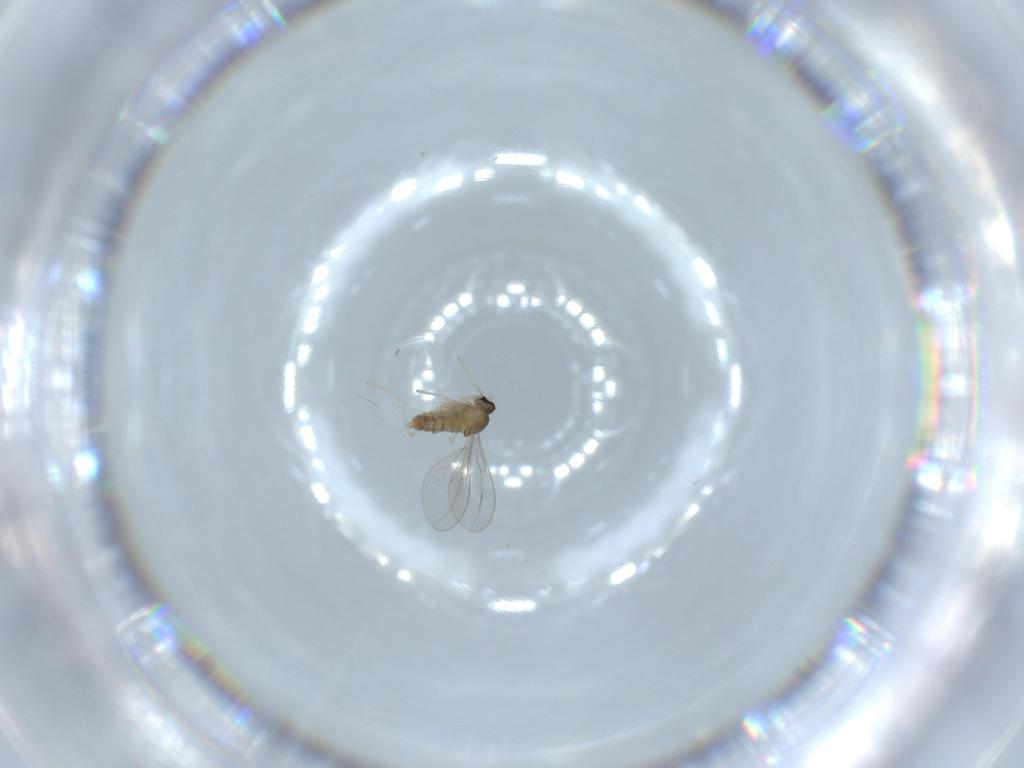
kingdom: Animalia
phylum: Arthropoda
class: Insecta
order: Diptera
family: Cecidomyiidae
